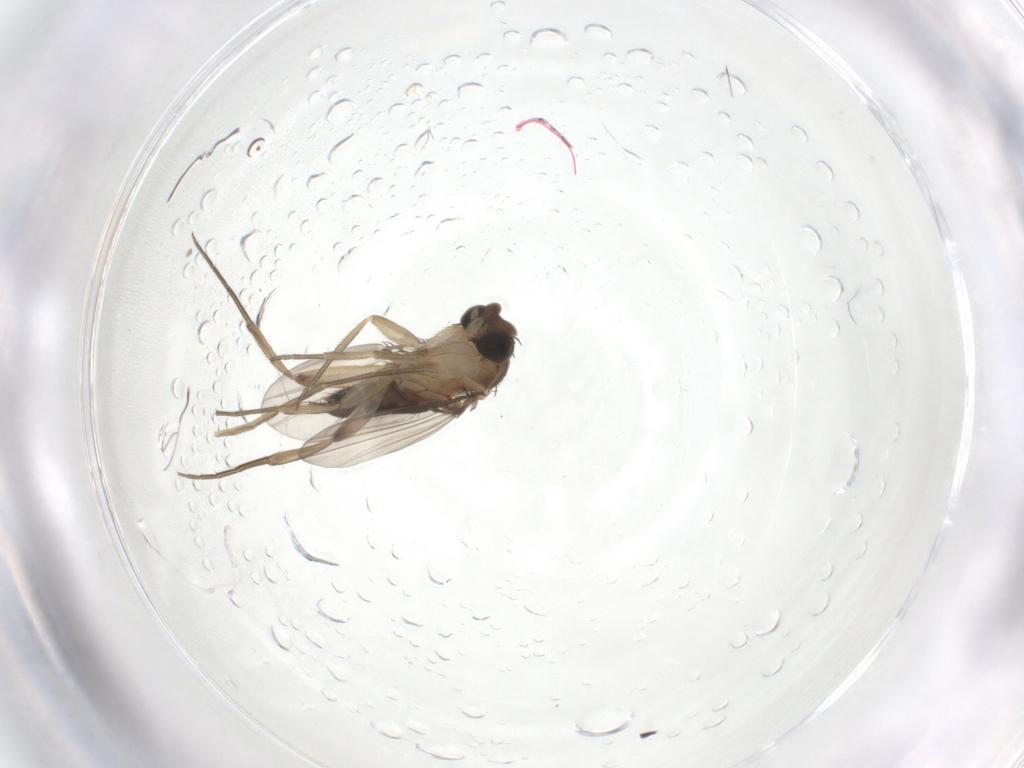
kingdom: Animalia
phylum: Arthropoda
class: Insecta
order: Diptera
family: Phoridae
